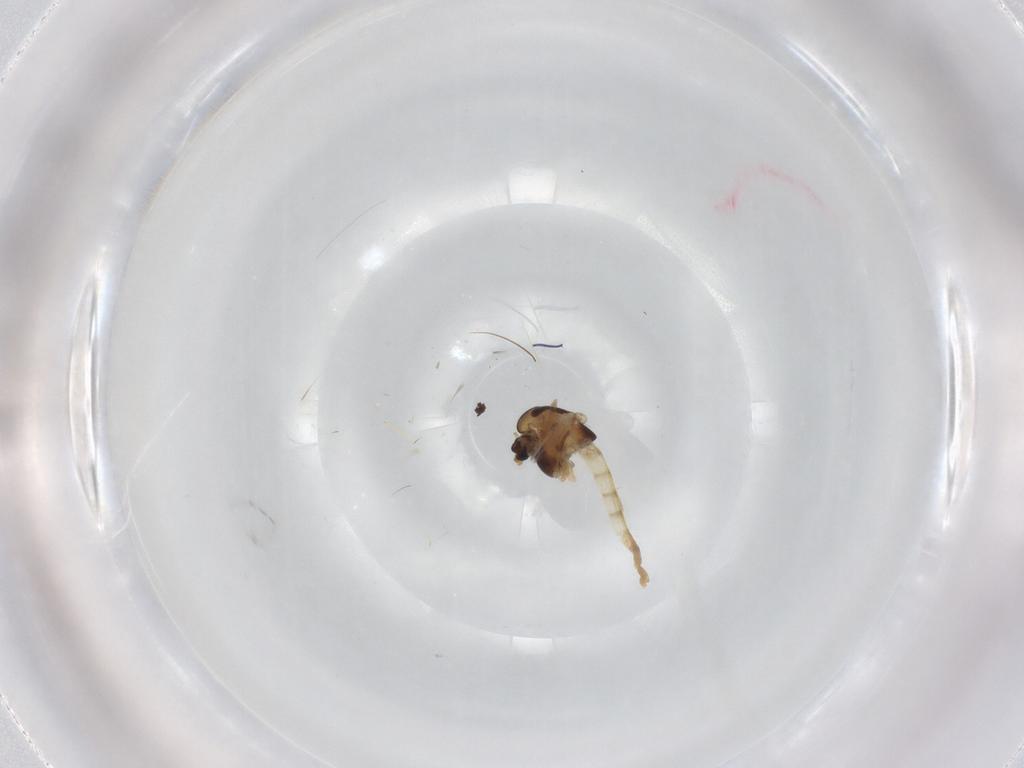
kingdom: Animalia
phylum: Arthropoda
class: Insecta
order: Diptera
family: Chironomidae
